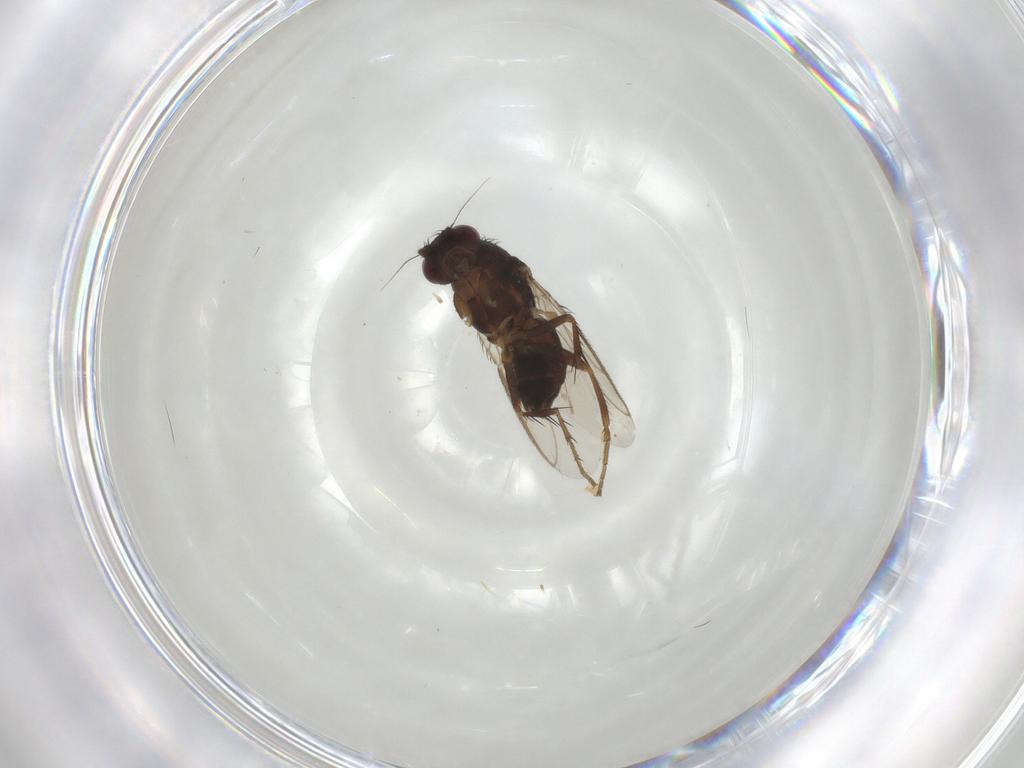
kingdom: Animalia
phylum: Arthropoda
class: Insecta
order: Diptera
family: Sphaeroceridae
